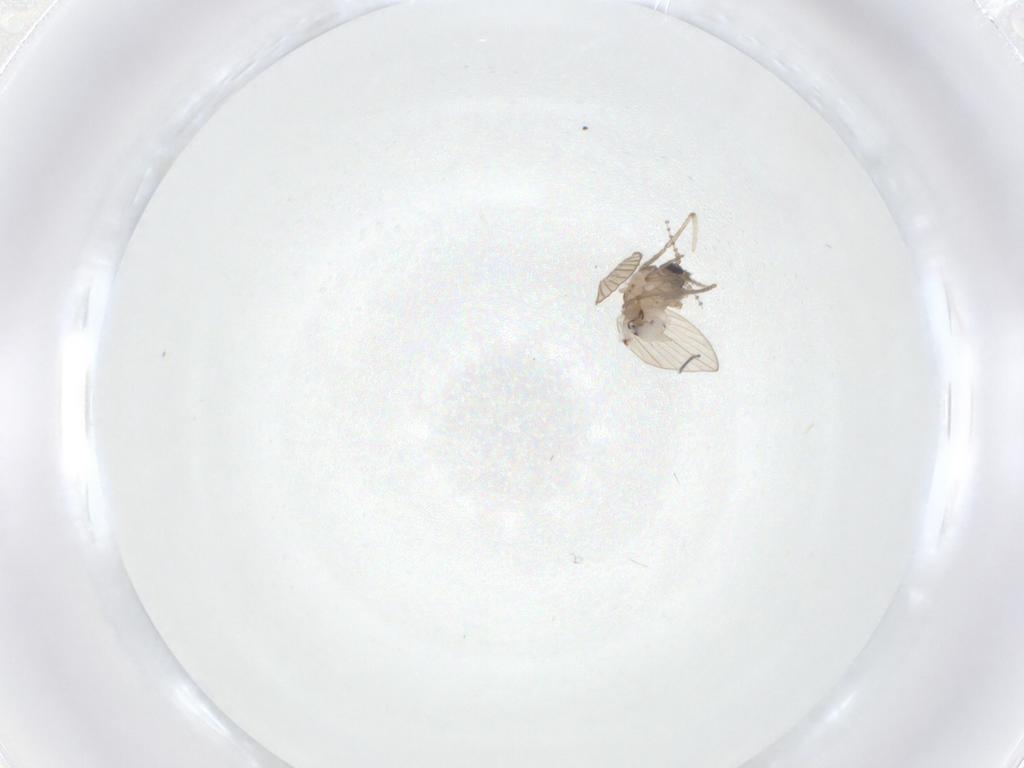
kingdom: Animalia
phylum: Arthropoda
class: Insecta
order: Diptera
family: Psychodidae
